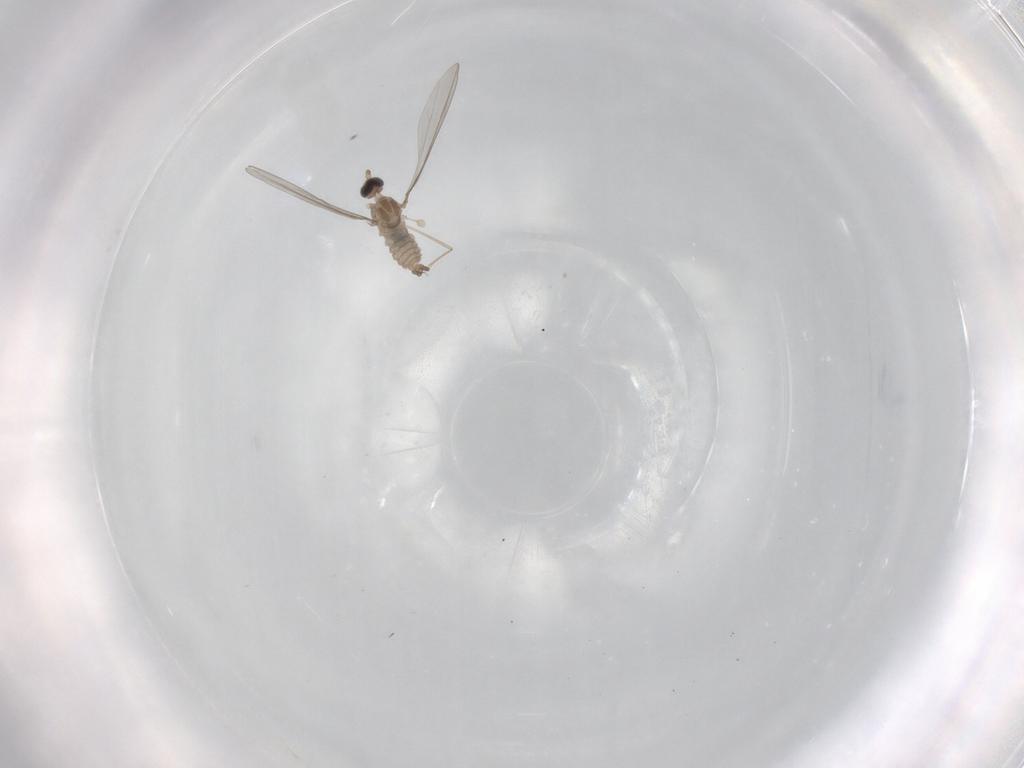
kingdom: Animalia
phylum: Arthropoda
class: Insecta
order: Diptera
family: Cecidomyiidae
